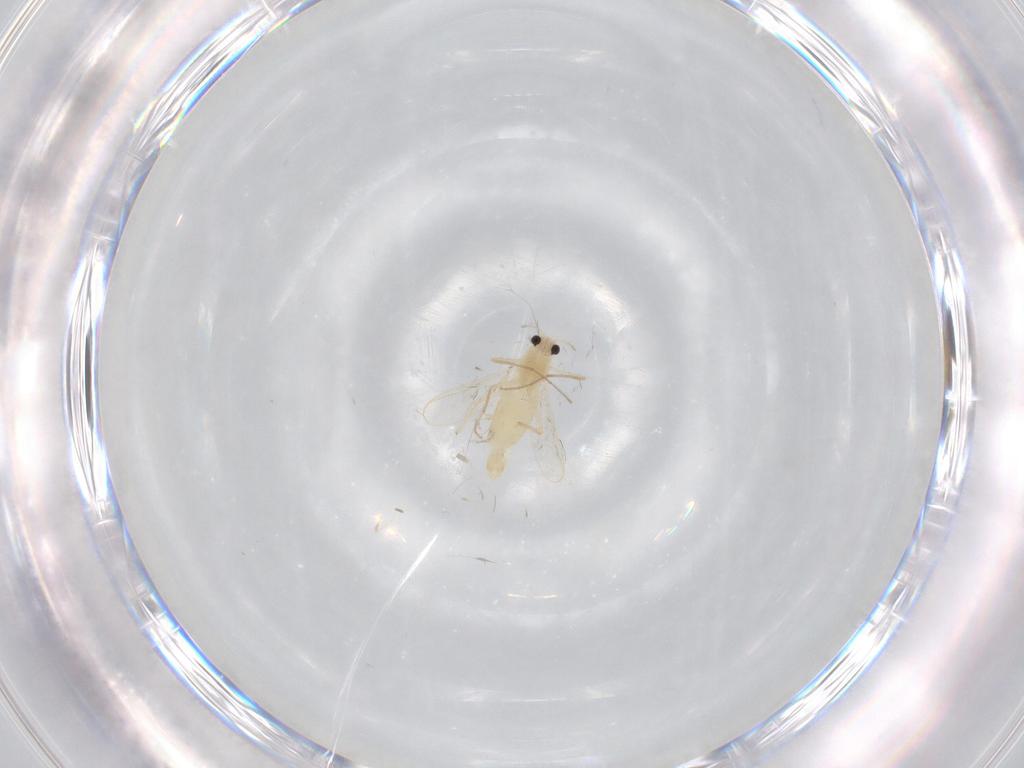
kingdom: Animalia
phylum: Arthropoda
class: Insecta
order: Diptera
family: Chironomidae
